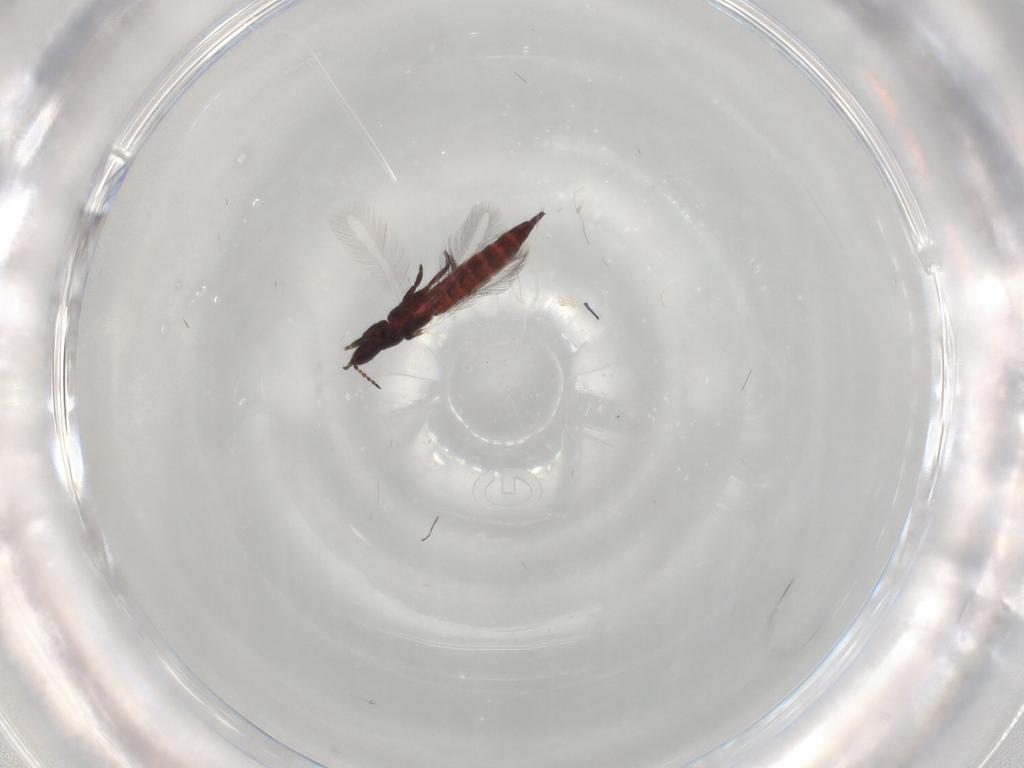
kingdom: Animalia
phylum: Arthropoda
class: Insecta
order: Thysanoptera
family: Phlaeothripidae
